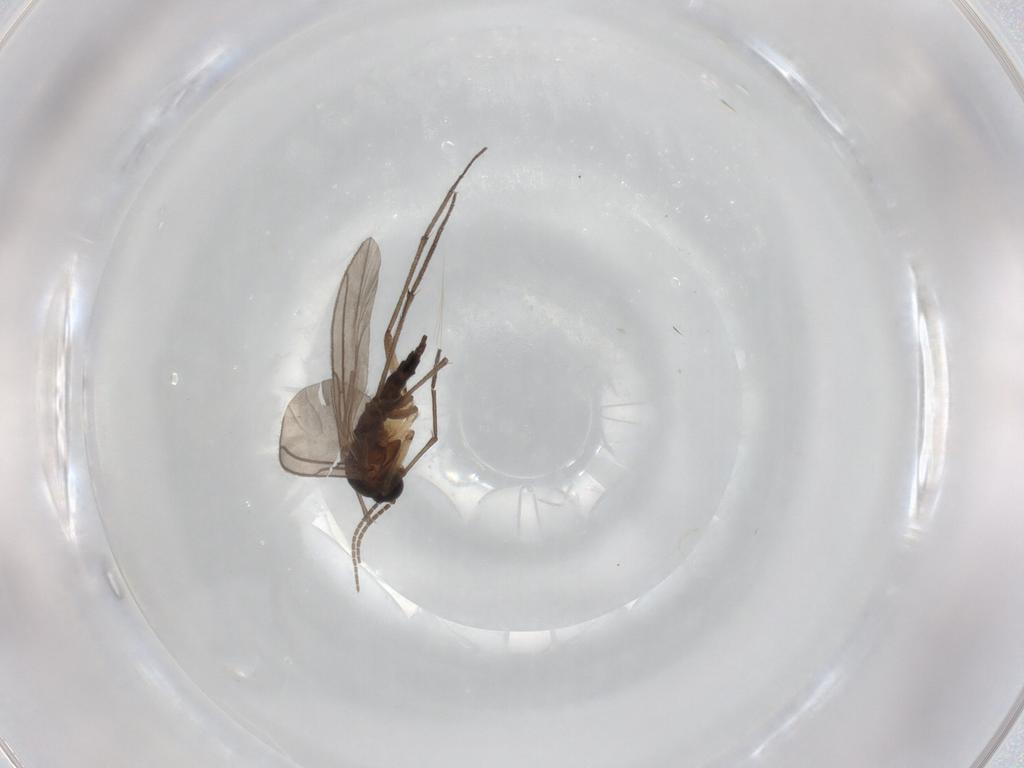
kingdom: Animalia
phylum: Arthropoda
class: Insecta
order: Diptera
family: Sciaridae
